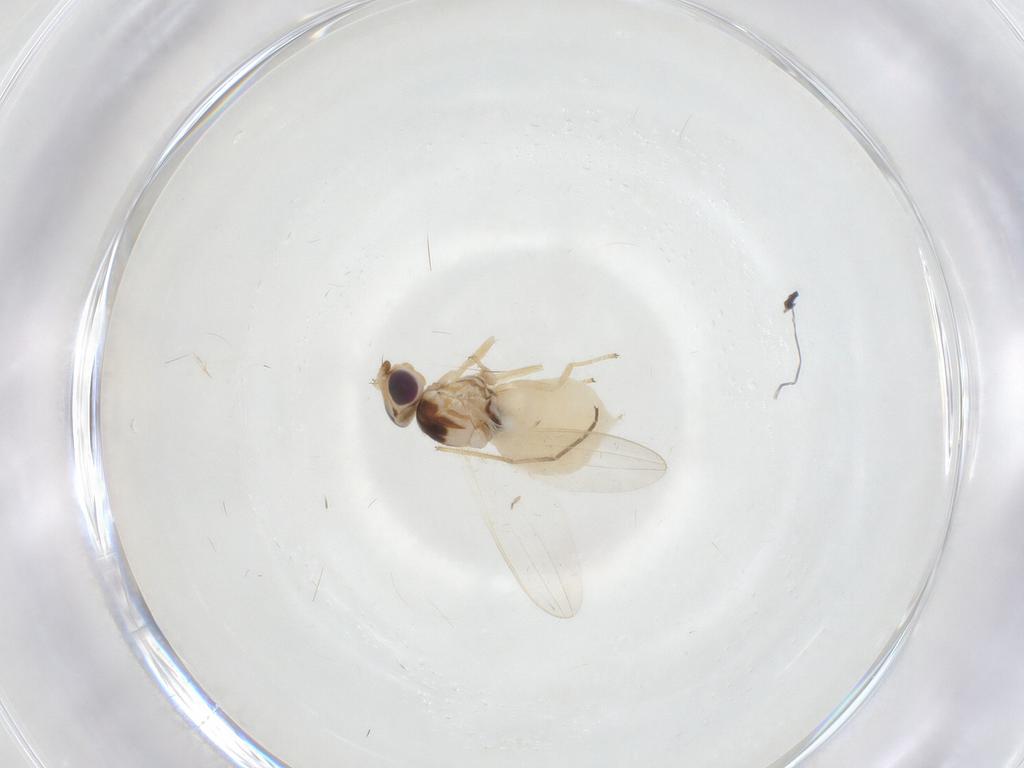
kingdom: Animalia
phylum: Arthropoda
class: Insecta
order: Diptera
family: Chloropidae
